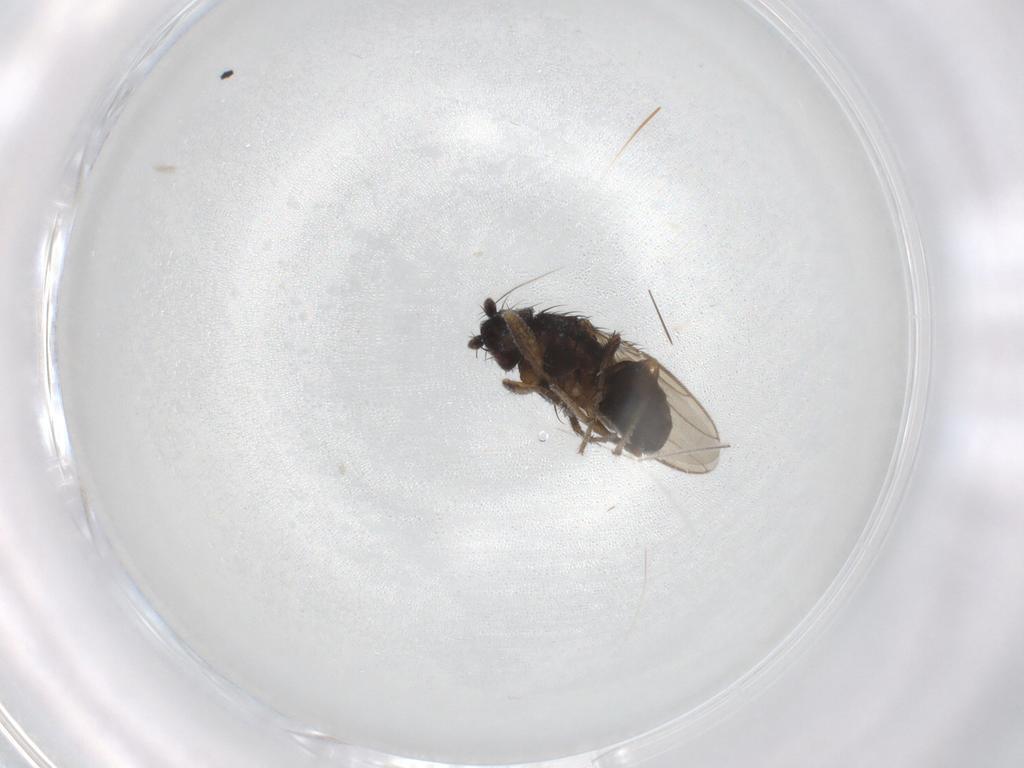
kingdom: Animalia
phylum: Arthropoda
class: Insecta
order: Diptera
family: Sphaeroceridae
